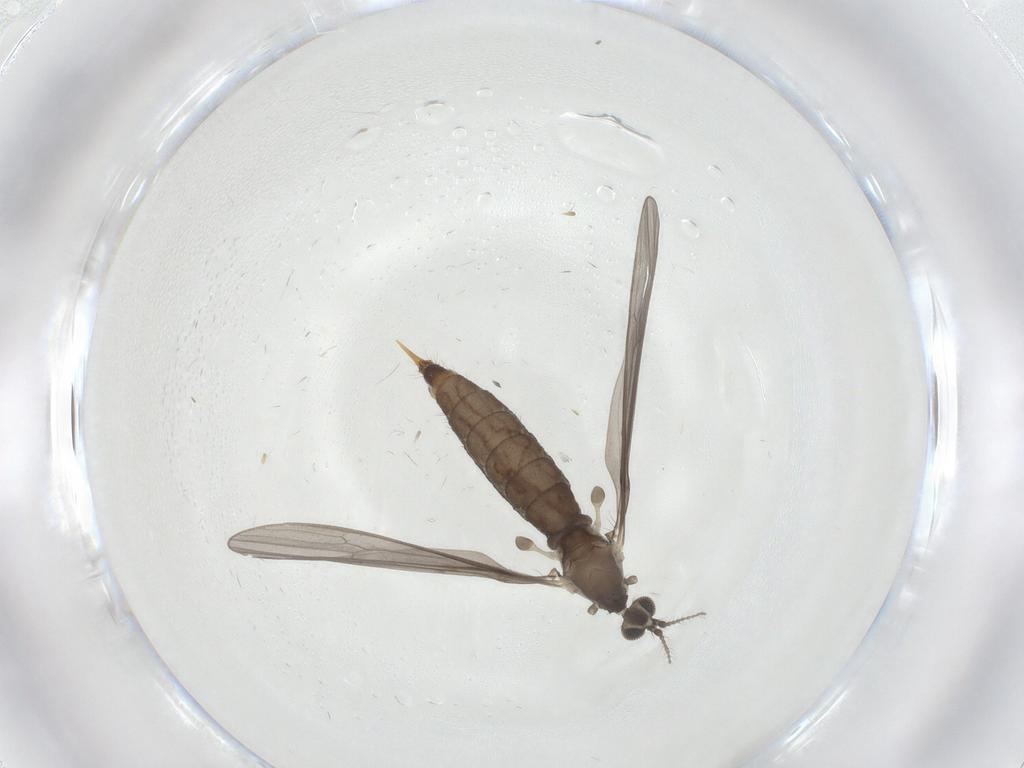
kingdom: Animalia
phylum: Arthropoda
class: Insecta
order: Diptera
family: Limoniidae
